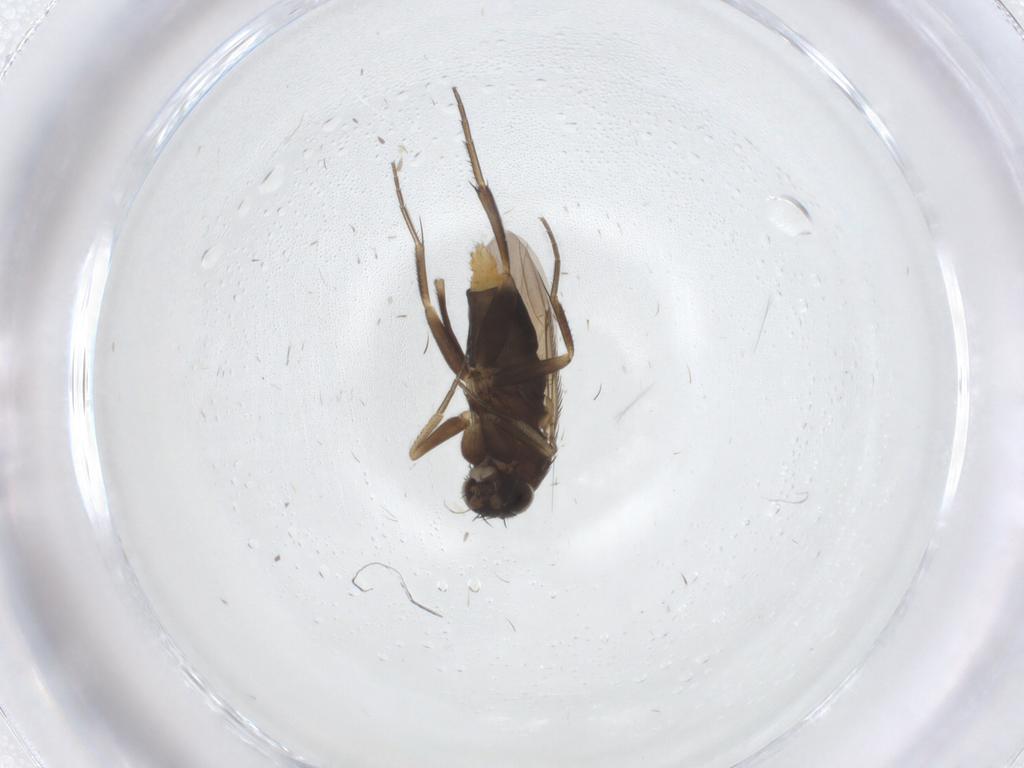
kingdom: Animalia
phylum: Arthropoda
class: Insecta
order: Diptera
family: Phoridae
